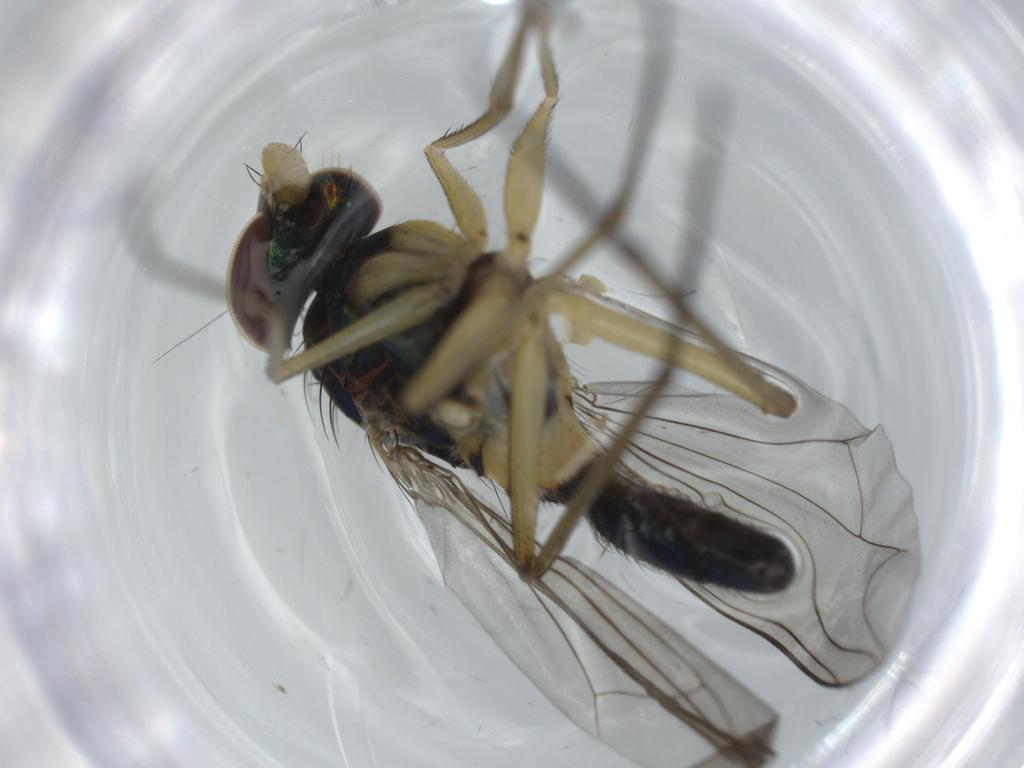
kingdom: Animalia
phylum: Arthropoda
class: Insecta
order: Diptera
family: Dolichopodidae
